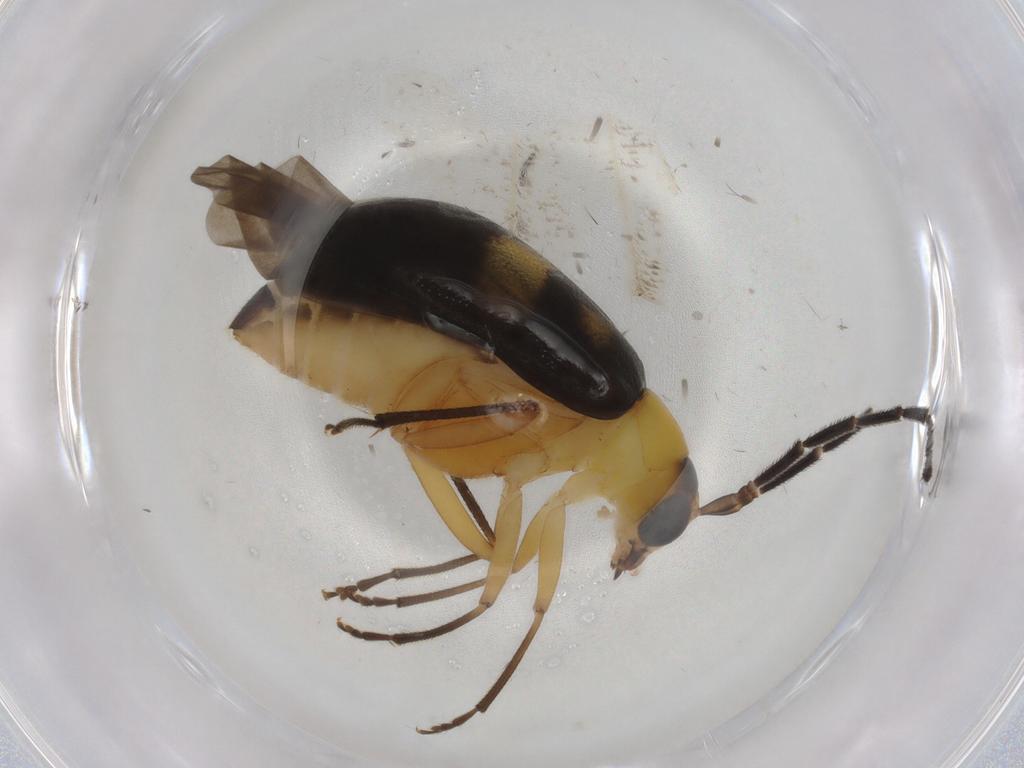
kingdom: Animalia
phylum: Arthropoda
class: Insecta
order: Coleoptera
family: Chrysomelidae
